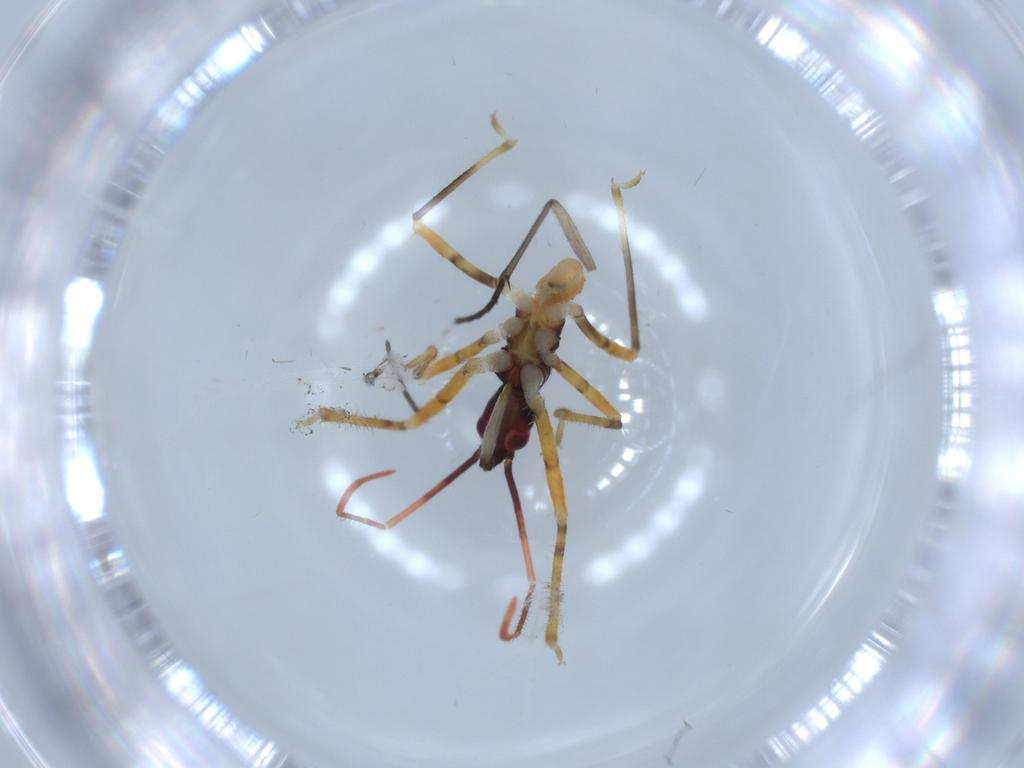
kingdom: Animalia
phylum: Arthropoda
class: Insecta
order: Hemiptera
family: Reduviidae
